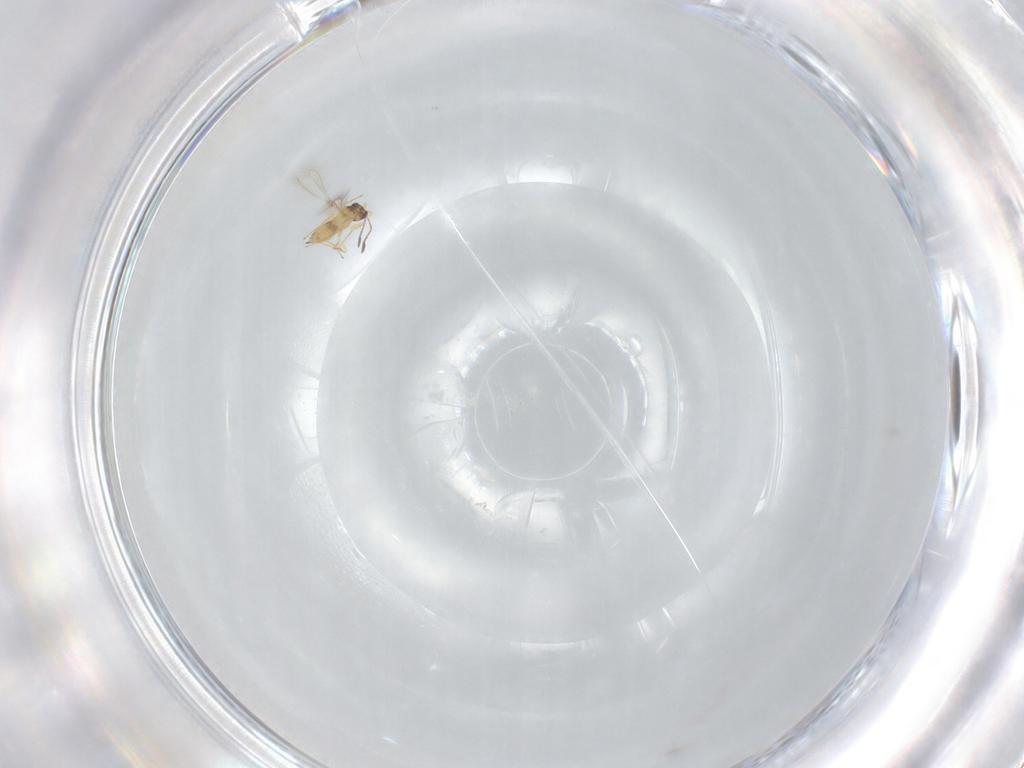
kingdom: Animalia
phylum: Arthropoda
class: Insecta
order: Hymenoptera
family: Mymaridae
